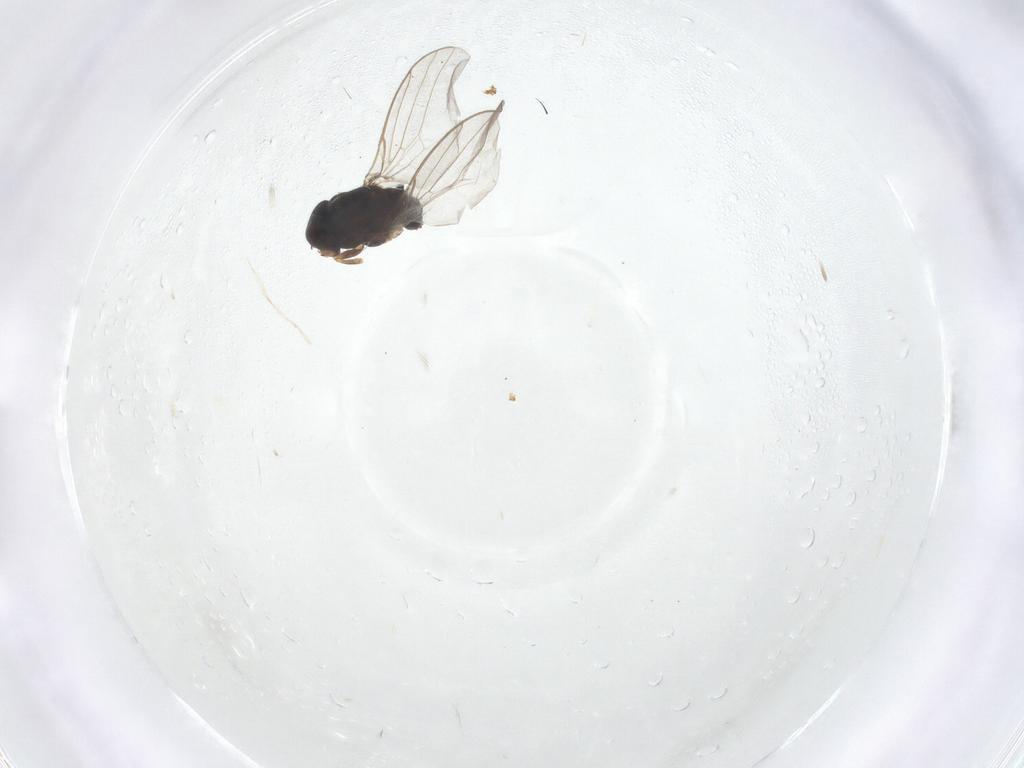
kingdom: Animalia
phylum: Arthropoda
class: Insecta
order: Diptera
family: Chloropidae
